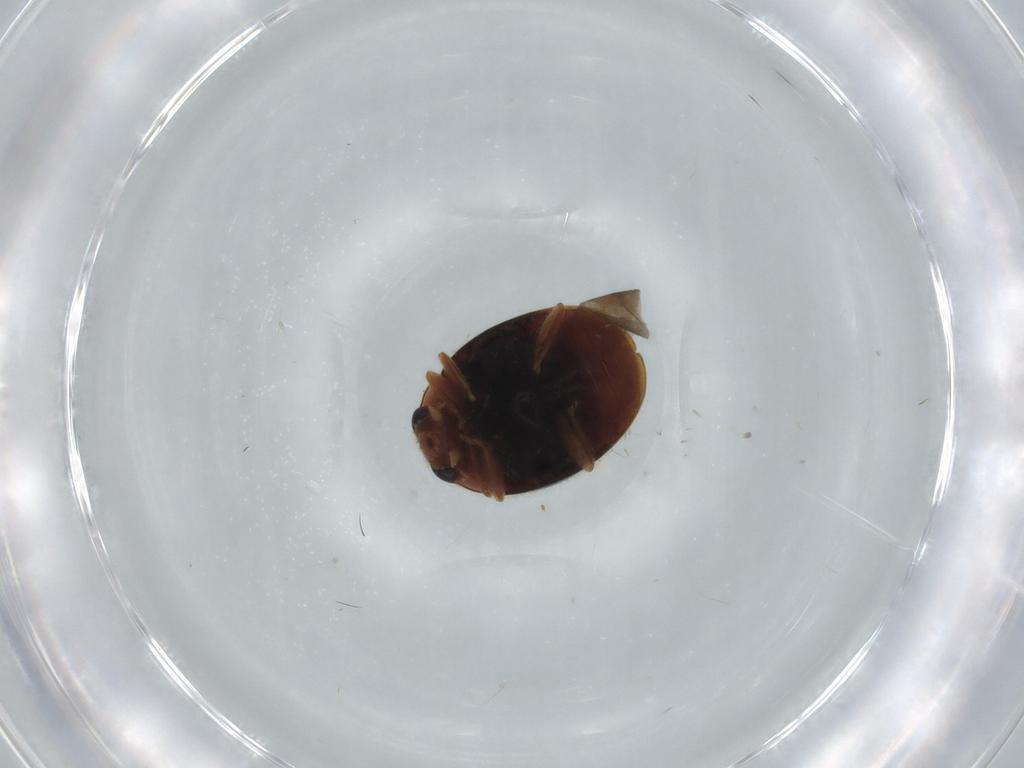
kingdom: Animalia
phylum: Arthropoda
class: Insecta
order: Coleoptera
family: Coccinellidae
